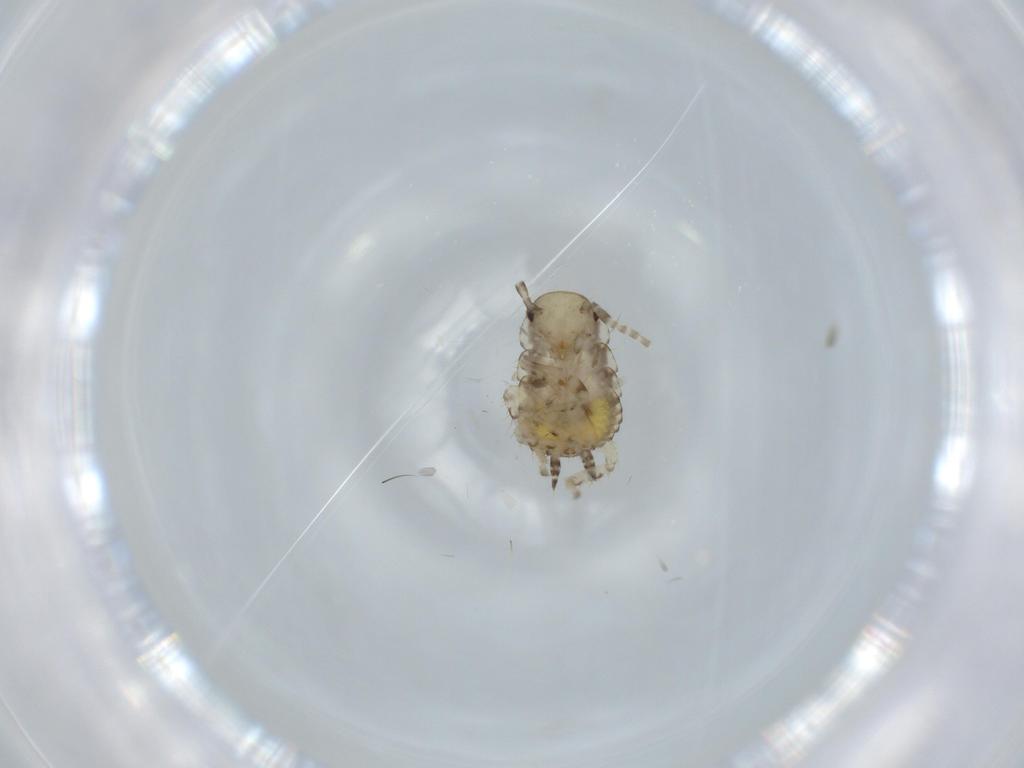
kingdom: Animalia
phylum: Arthropoda
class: Insecta
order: Blattodea
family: Ectobiidae
